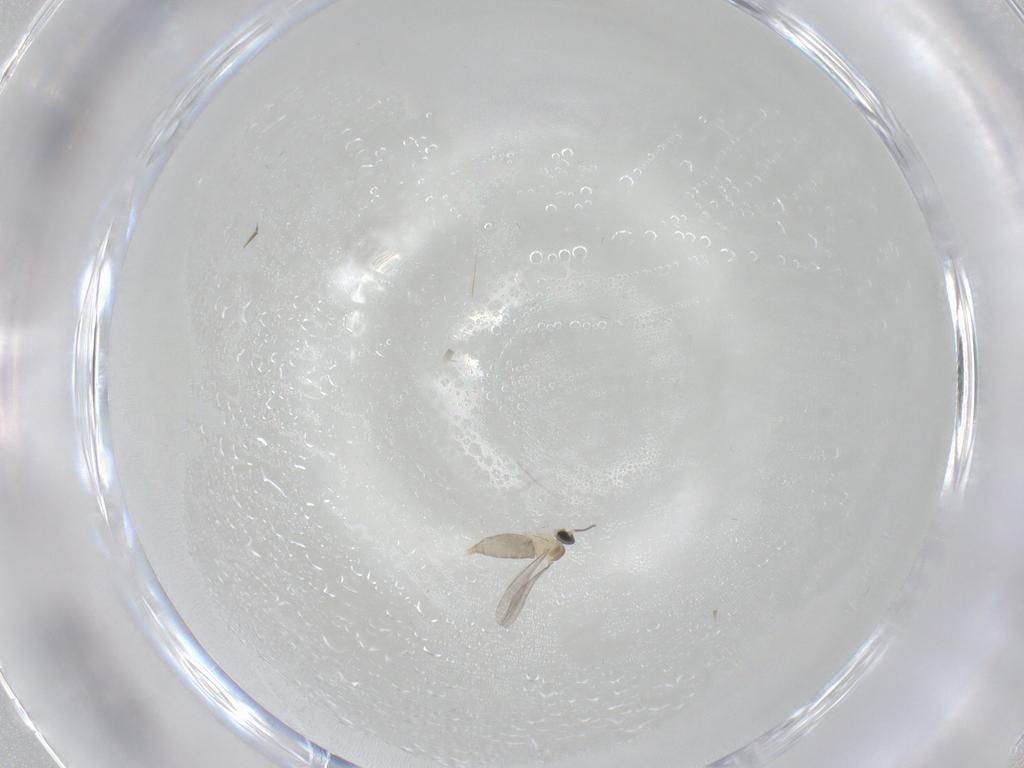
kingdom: Animalia
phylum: Arthropoda
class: Insecta
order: Diptera
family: Cecidomyiidae
